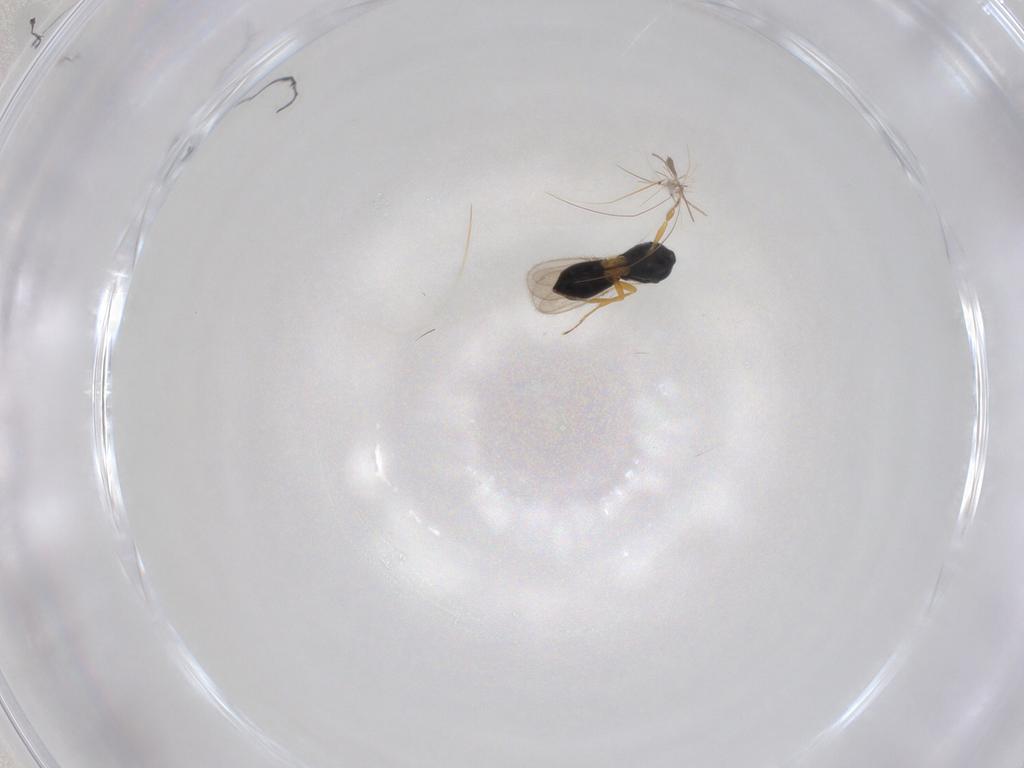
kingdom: Animalia
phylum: Arthropoda
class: Insecta
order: Hymenoptera
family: Scelionidae
